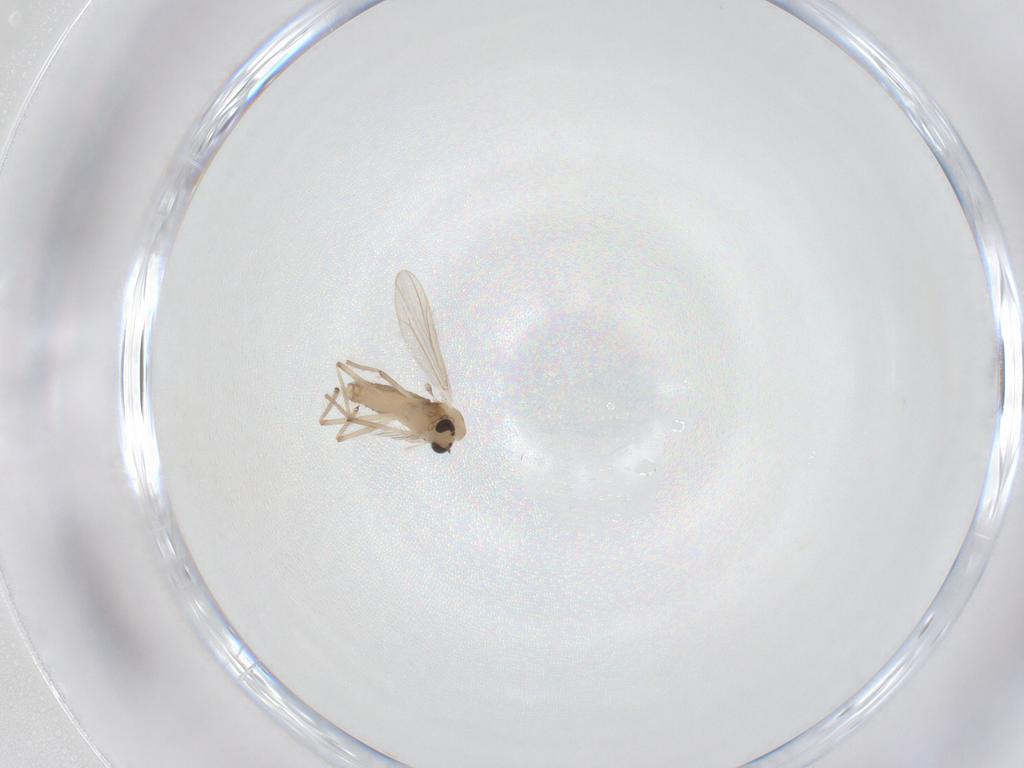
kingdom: Animalia
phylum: Arthropoda
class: Insecta
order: Diptera
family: Chironomidae
